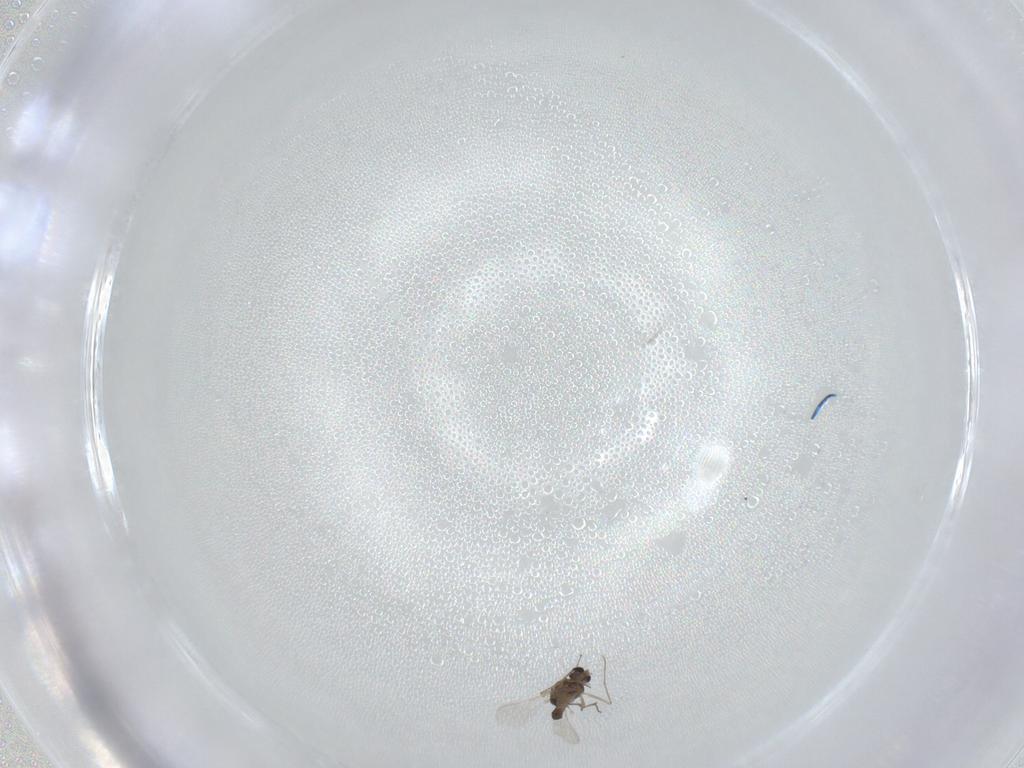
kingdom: Animalia
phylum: Arthropoda
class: Insecta
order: Diptera
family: Chironomidae
